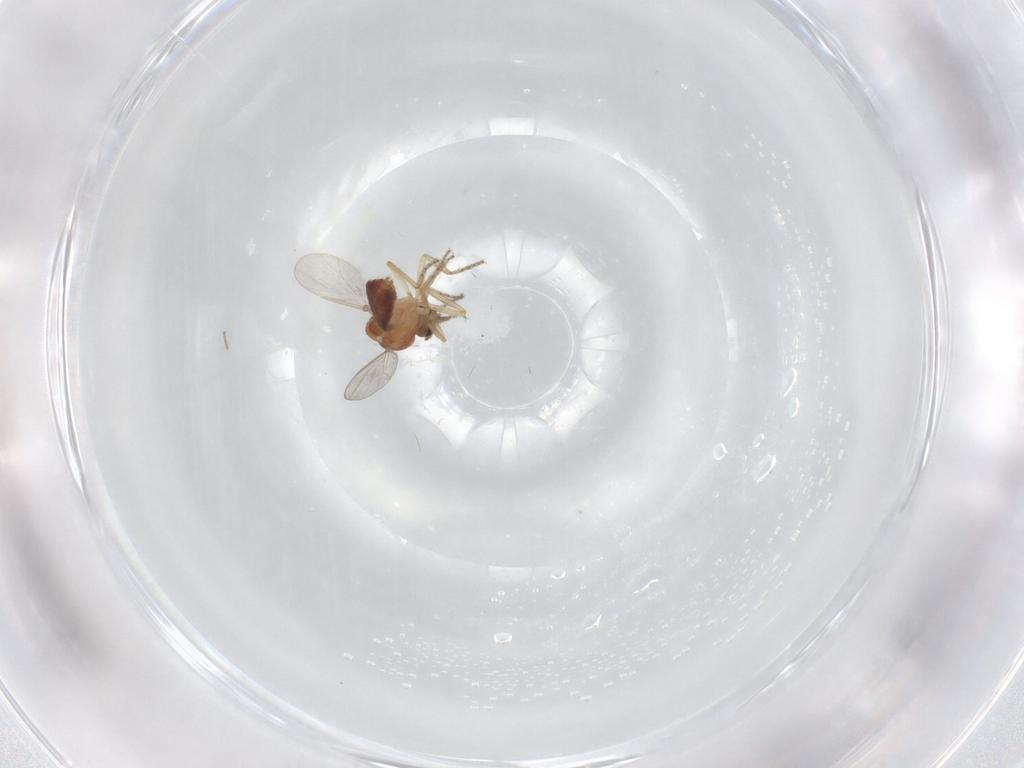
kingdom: Animalia
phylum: Arthropoda
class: Insecta
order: Diptera
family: Ceratopogonidae
